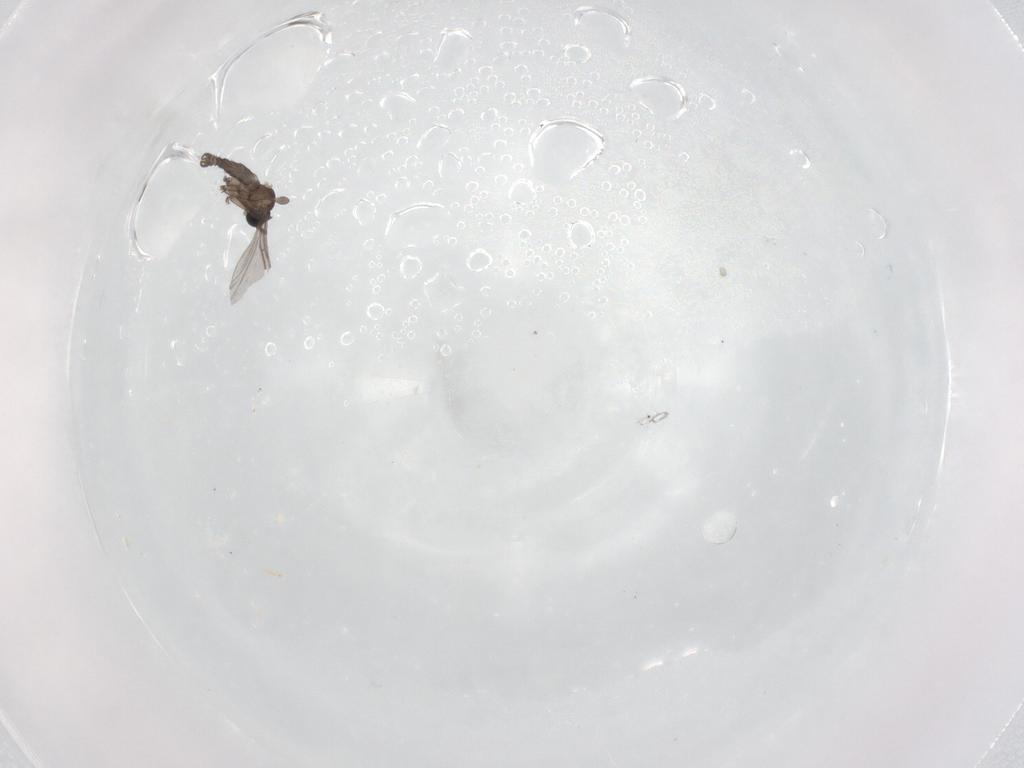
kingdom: Animalia
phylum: Arthropoda
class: Insecta
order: Diptera
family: Sciaridae
